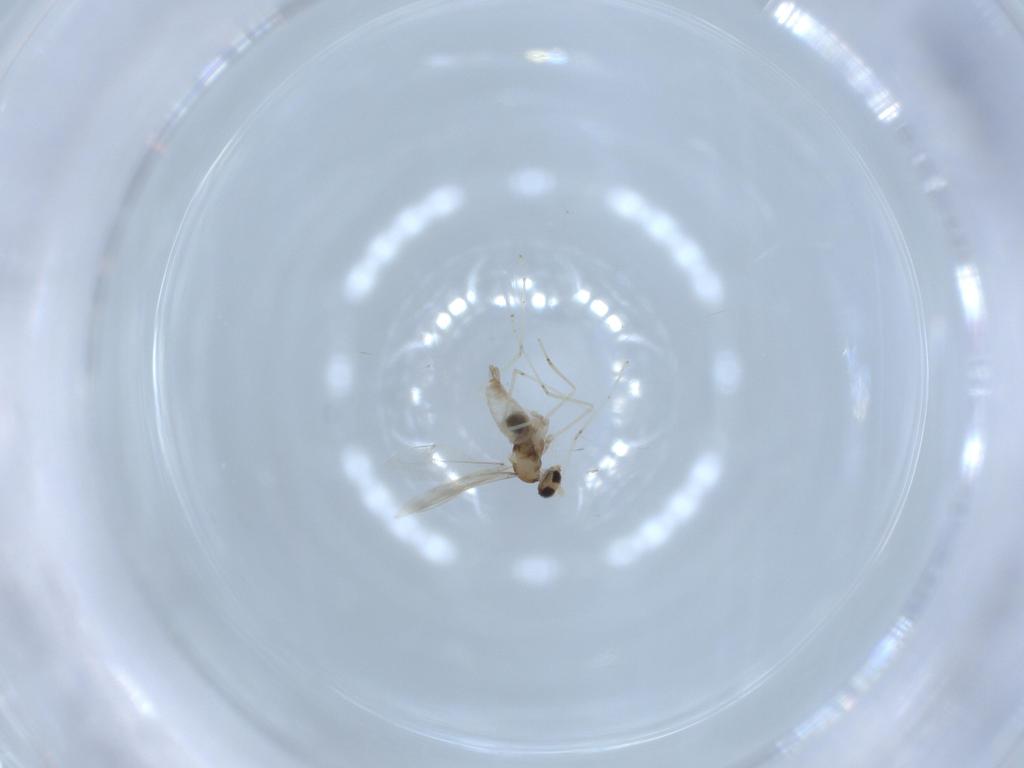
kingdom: Animalia
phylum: Arthropoda
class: Insecta
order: Diptera
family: Cecidomyiidae
